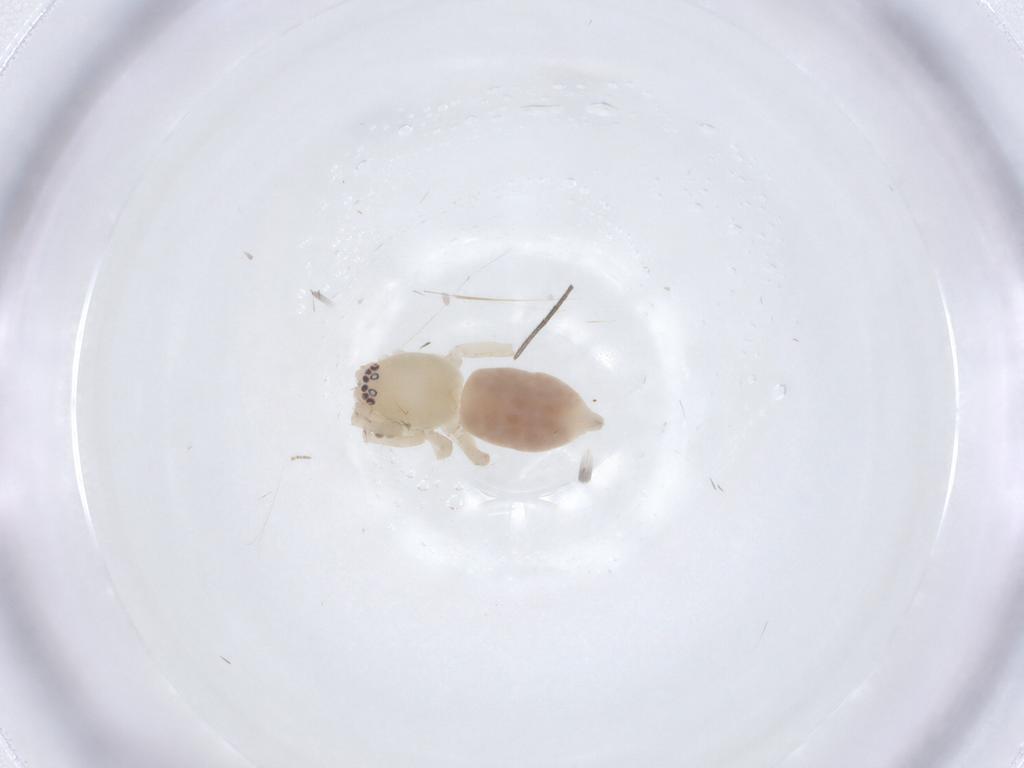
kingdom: Animalia
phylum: Arthropoda
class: Arachnida
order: Araneae
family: Clubionidae
